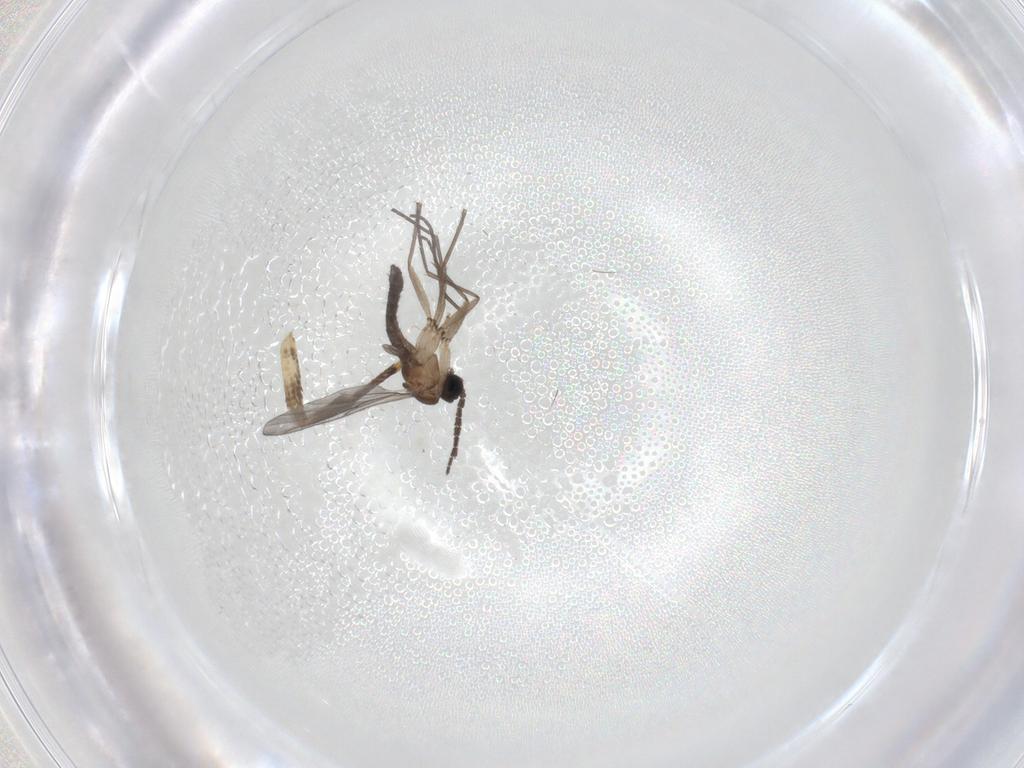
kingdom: Animalia
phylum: Arthropoda
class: Insecta
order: Diptera
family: Sciaridae
